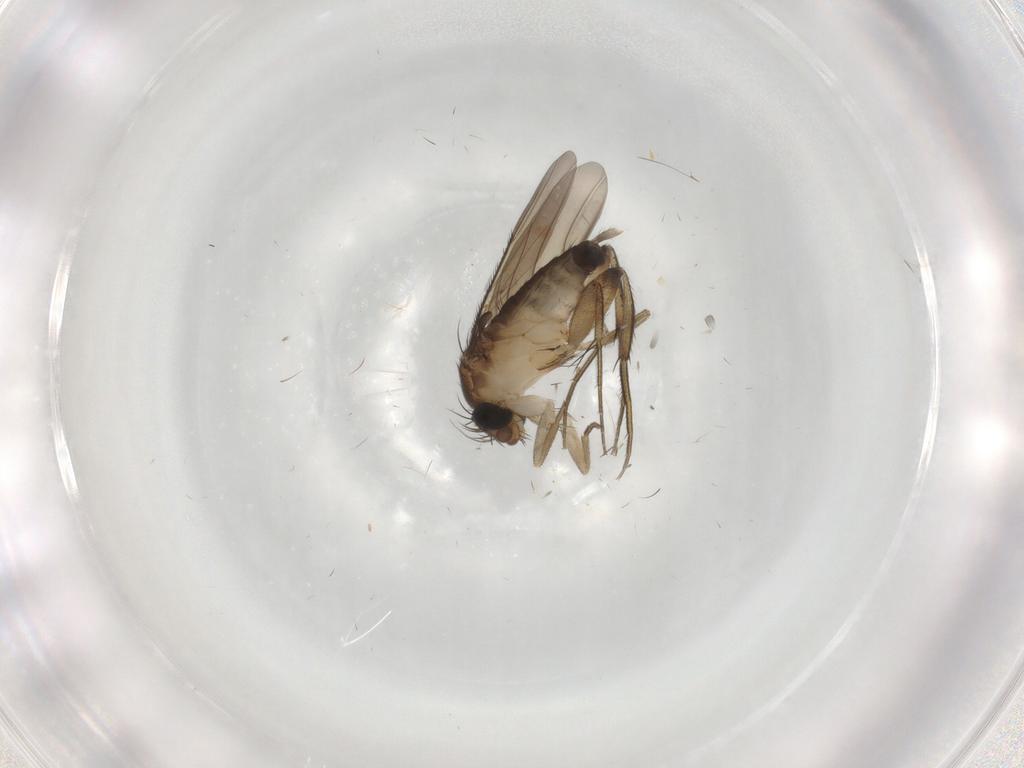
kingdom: Animalia
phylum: Arthropoda
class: Insecta
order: Diptera
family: Phoridae
